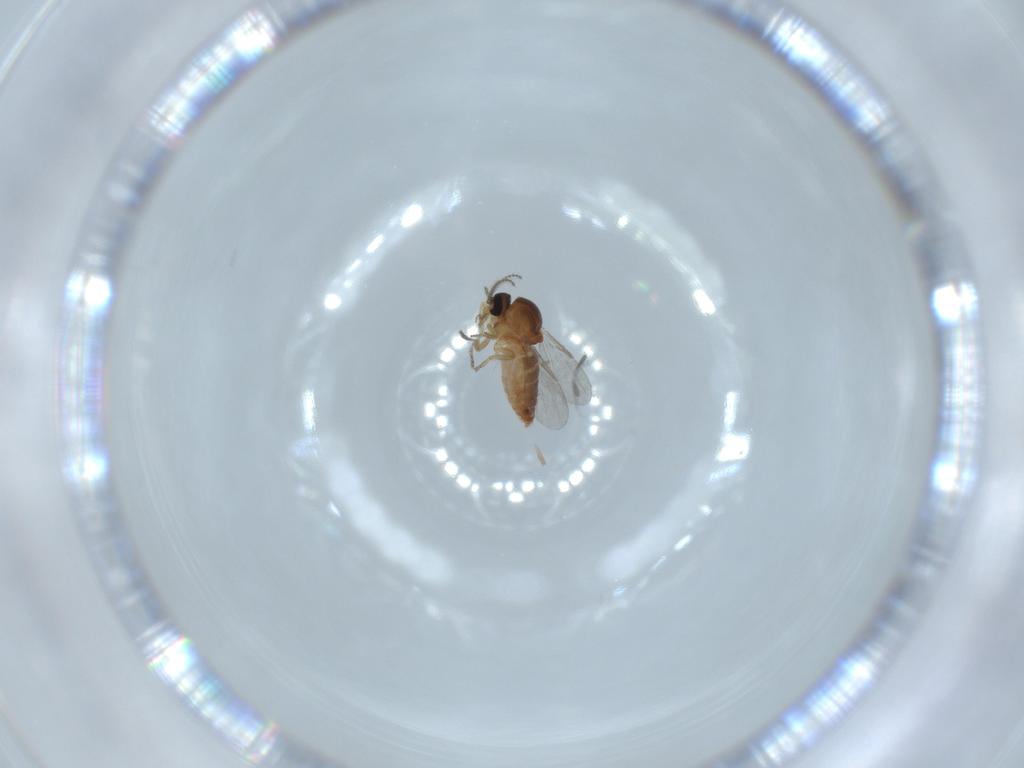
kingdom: Animalia
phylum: Arthropoda
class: Insecta
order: Diptera
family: Ceratopogonidae
